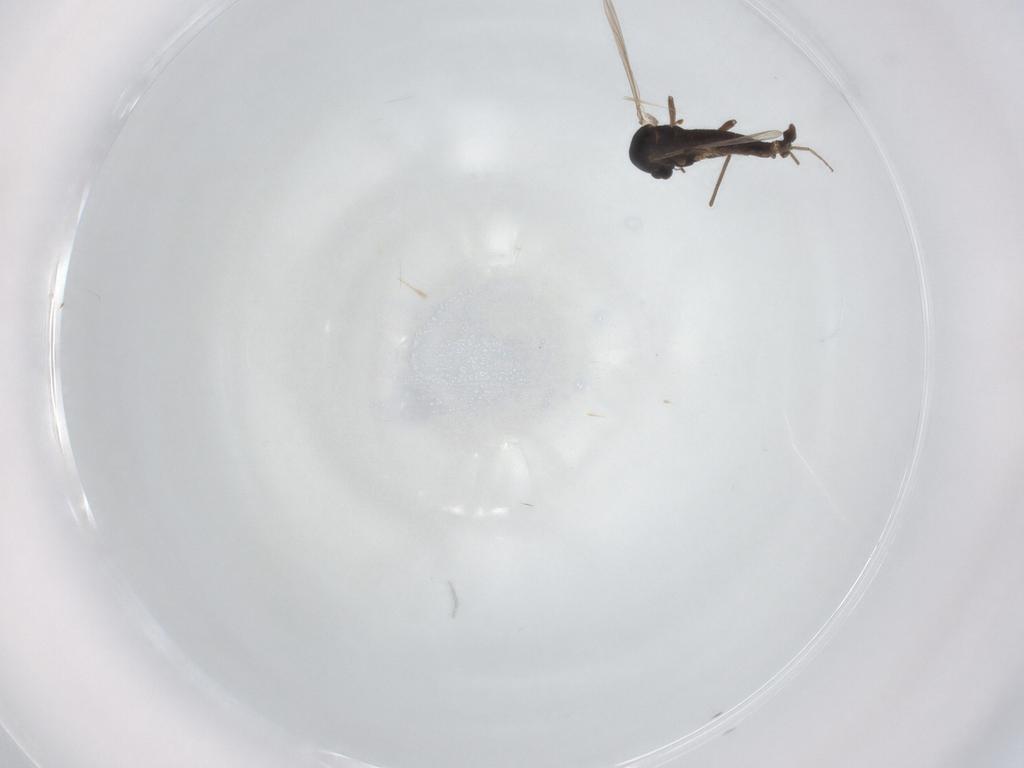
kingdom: Animalia
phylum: Arthropoda
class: Insecta
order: Diptera
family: Chironomidae
